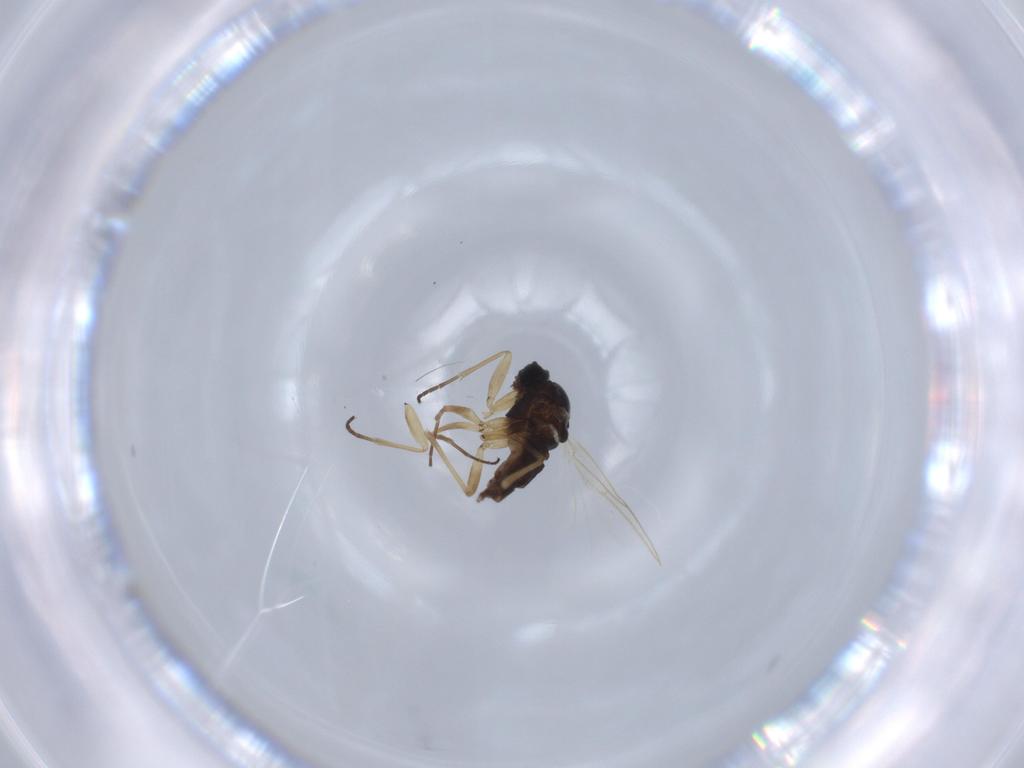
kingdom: Animalia
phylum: Arthropoda
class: Insecta
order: Diptera
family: Sciaridae
